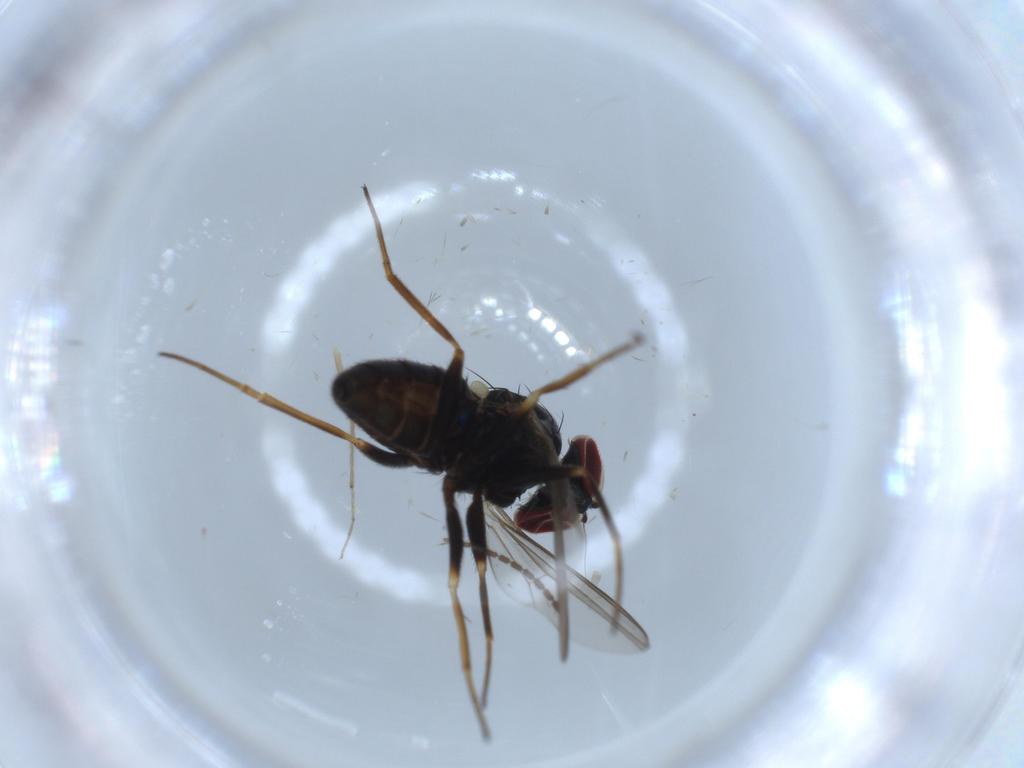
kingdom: Animalia
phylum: Arthropoda
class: Insecta
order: Diptera
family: Dolichopodidae
